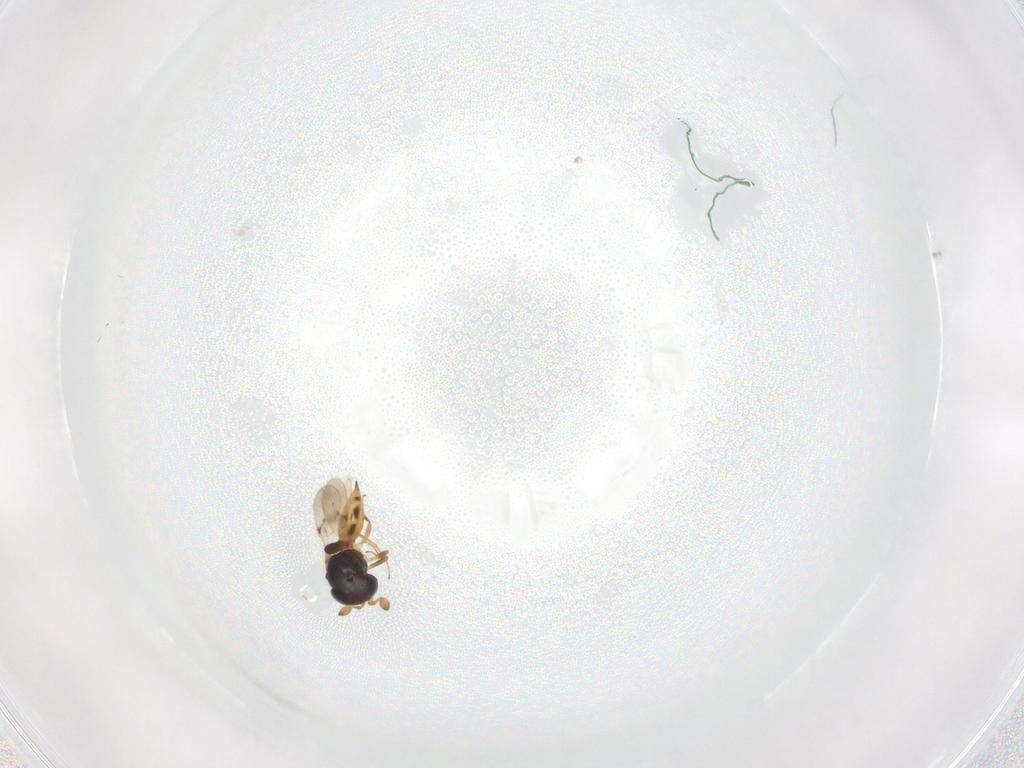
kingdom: Animalia
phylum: Arthropoda
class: Insecta
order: Hymenoptera
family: Scelionidae
